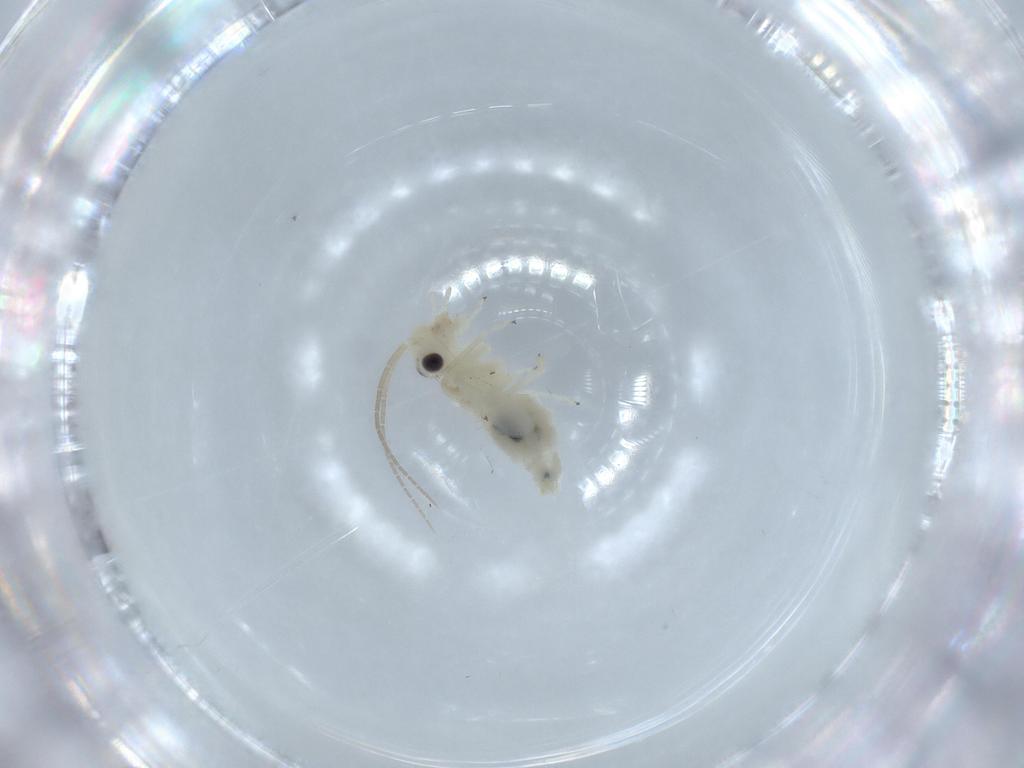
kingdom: Animalia
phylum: Arthropoda
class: Insecta
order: Psocodea
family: Caeciliusidae
